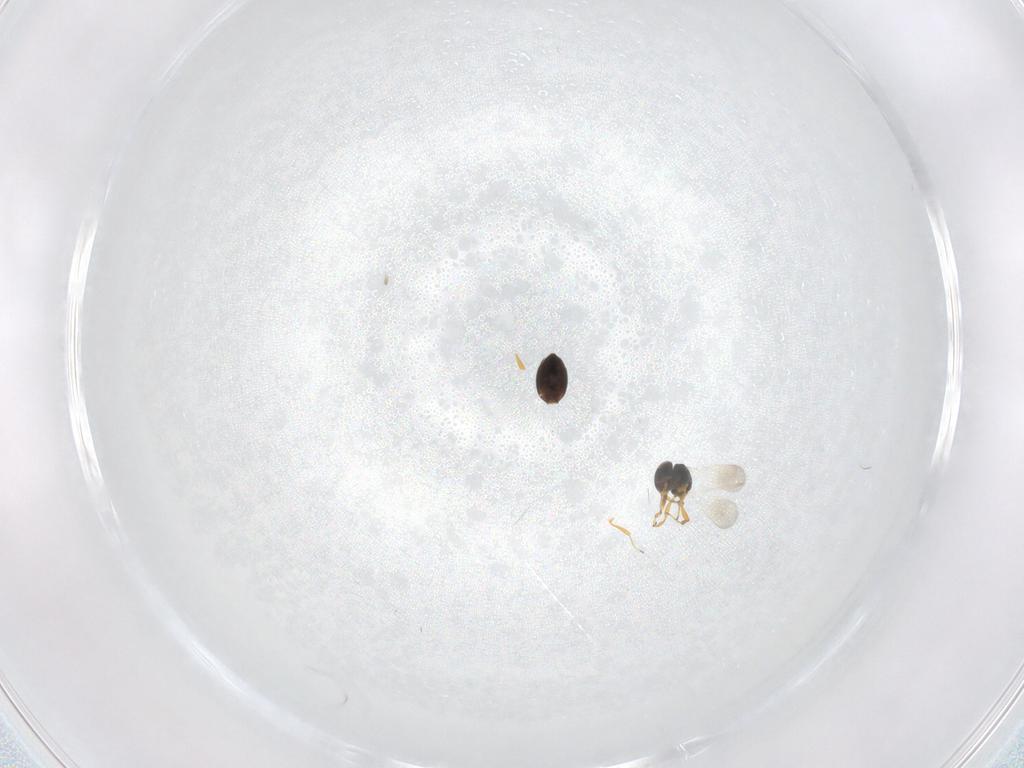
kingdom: Animalia
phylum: Arthropoda
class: Insecta
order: Hymenoptera
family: Platygastridae
